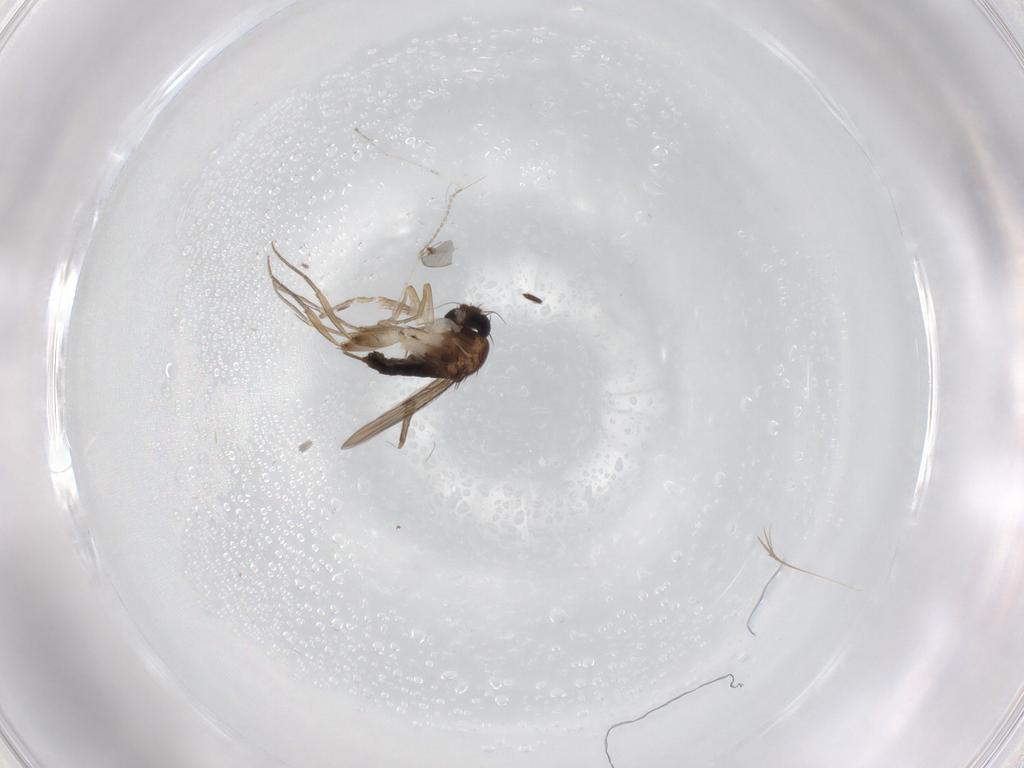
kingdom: Animalia
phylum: Arthropoda
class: Insecta
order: Diptera
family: Phoridae
